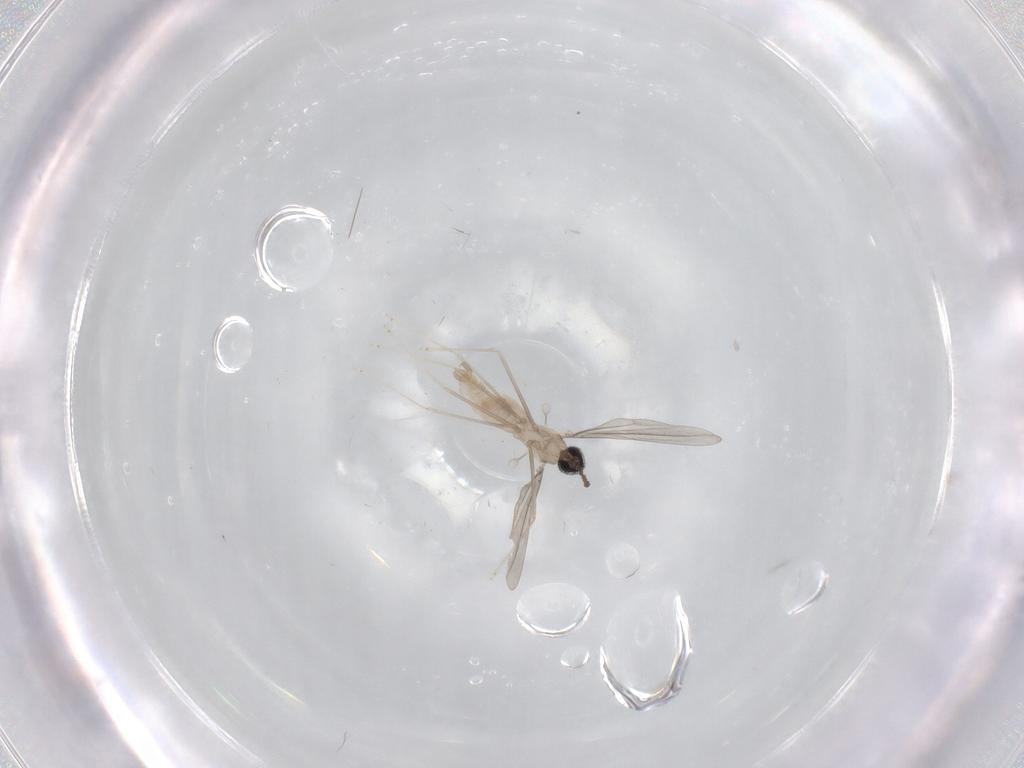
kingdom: Animalia
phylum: Arthropoda
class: Insecta
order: Diptera
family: Cecidomyiidae
